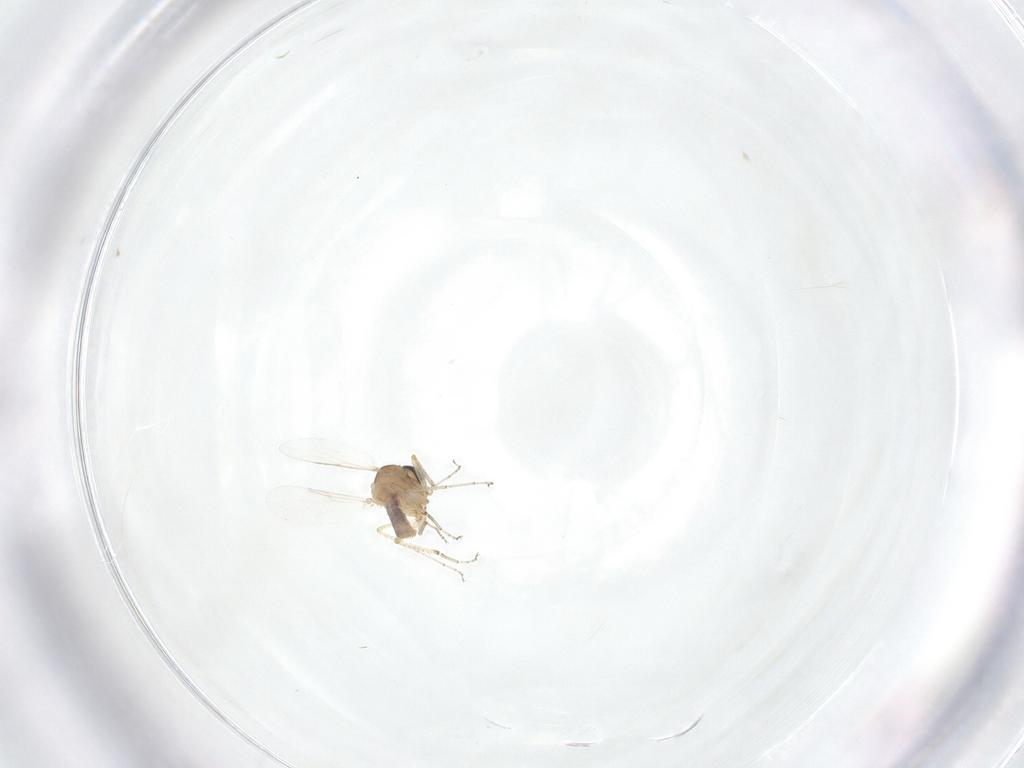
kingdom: Animalia
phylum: Arthropoda
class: Insecta
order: Diptera
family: Cecidomyiidae
